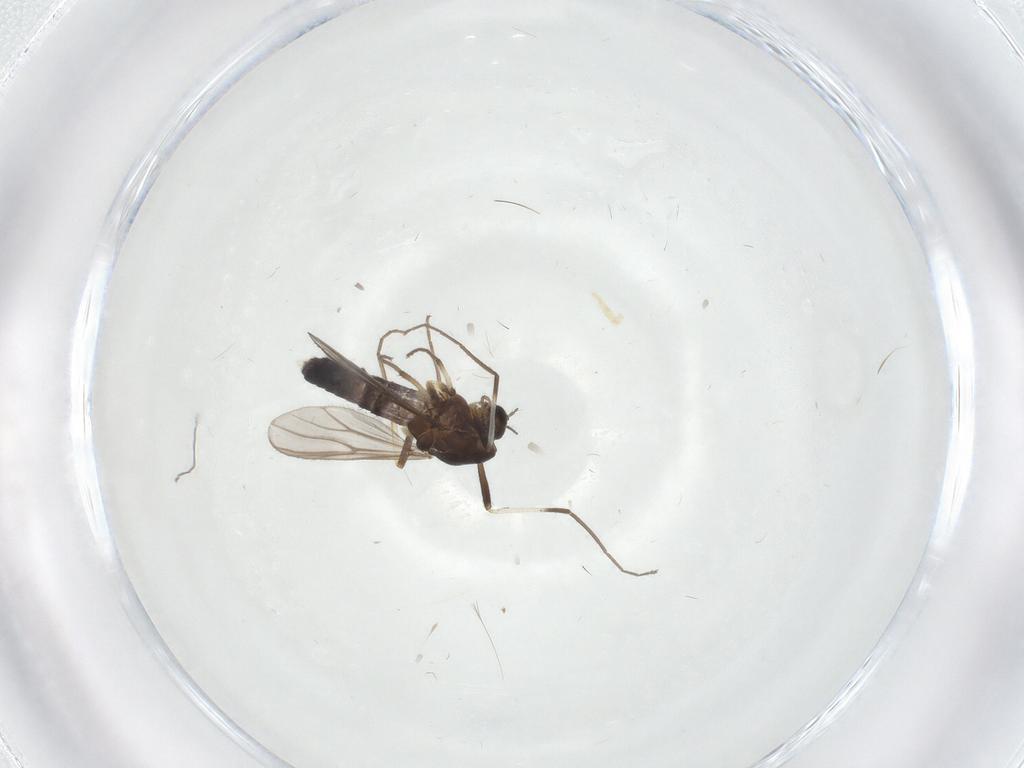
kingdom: Animalia
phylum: Arthropoda
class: Insecta
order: Diptera
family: Chironomidae
